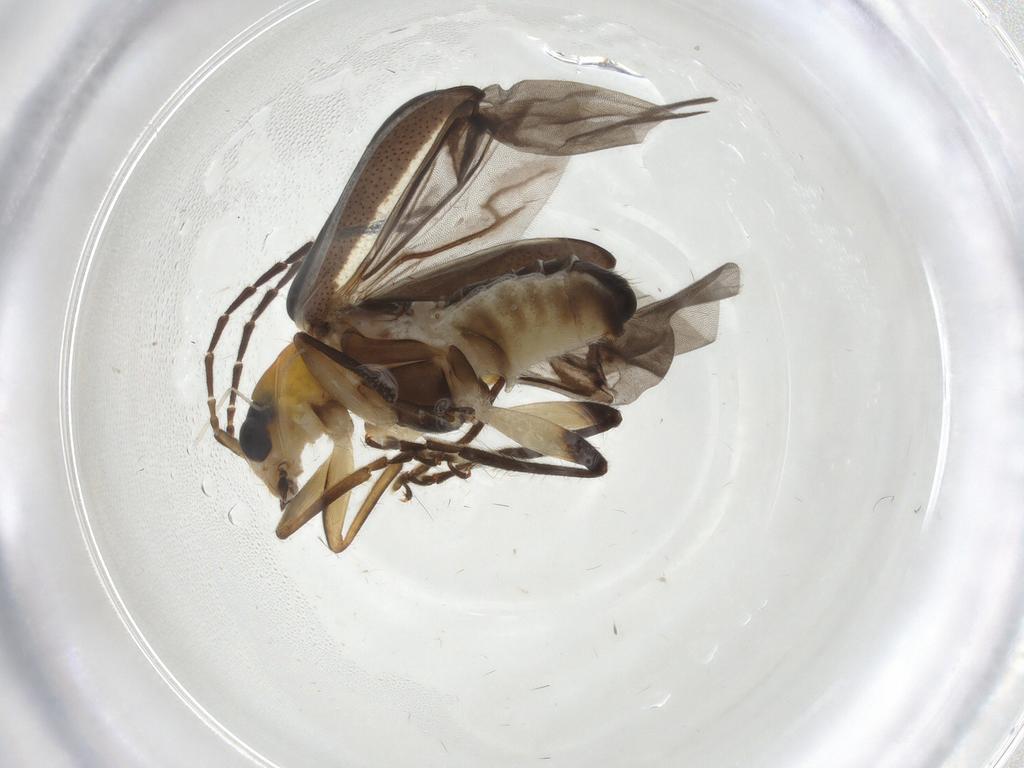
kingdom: Animalia
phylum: Arthropoda
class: Insecta
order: Coleoptera
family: Chrysomelidae
